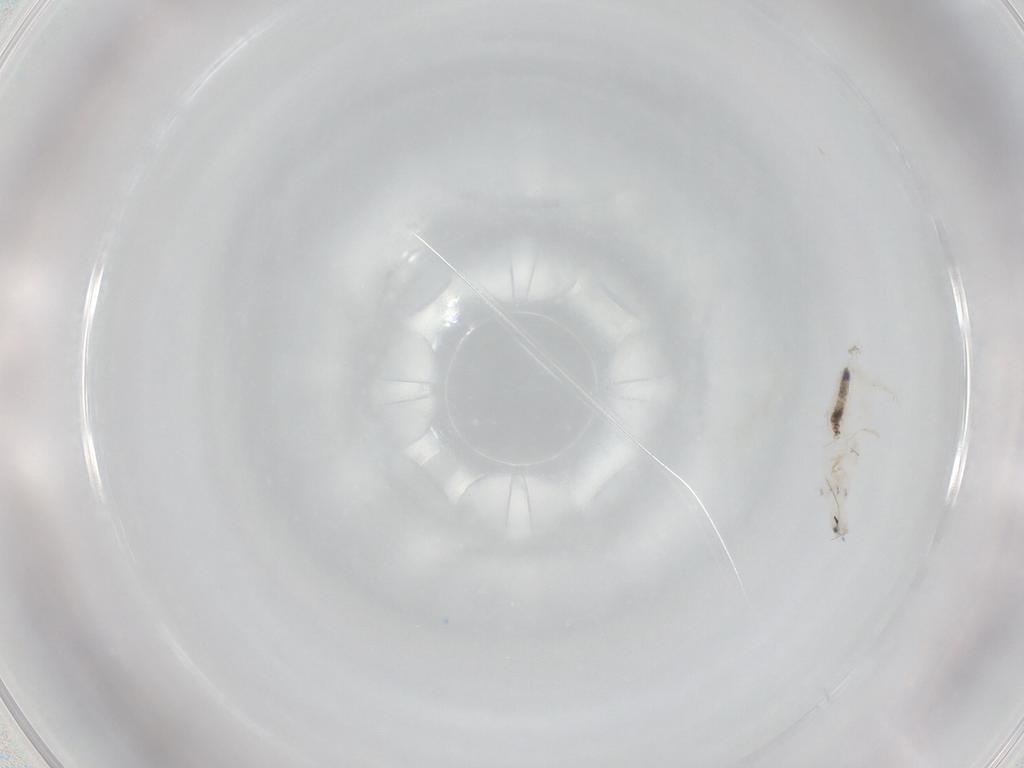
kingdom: Animalia
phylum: Arthropoda
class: Collembola
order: Entomobryomorpha
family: Entomobryidae
